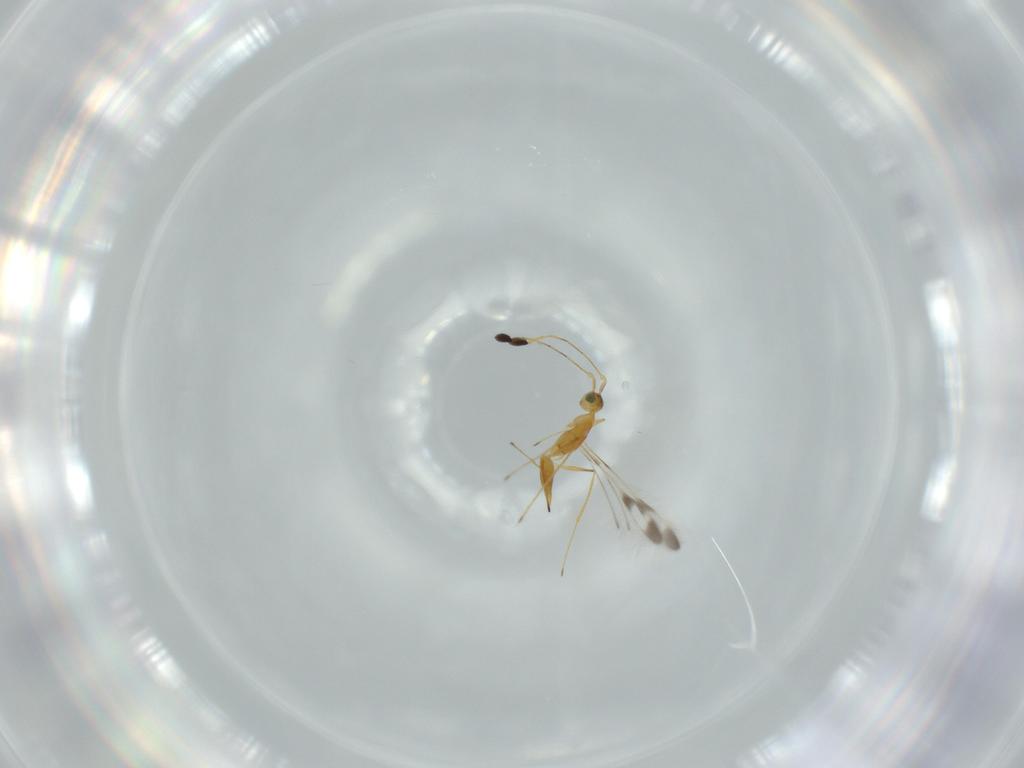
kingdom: Animalia
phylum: Arthropoda
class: Insecta
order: Hymenoptera
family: Mymaridae
